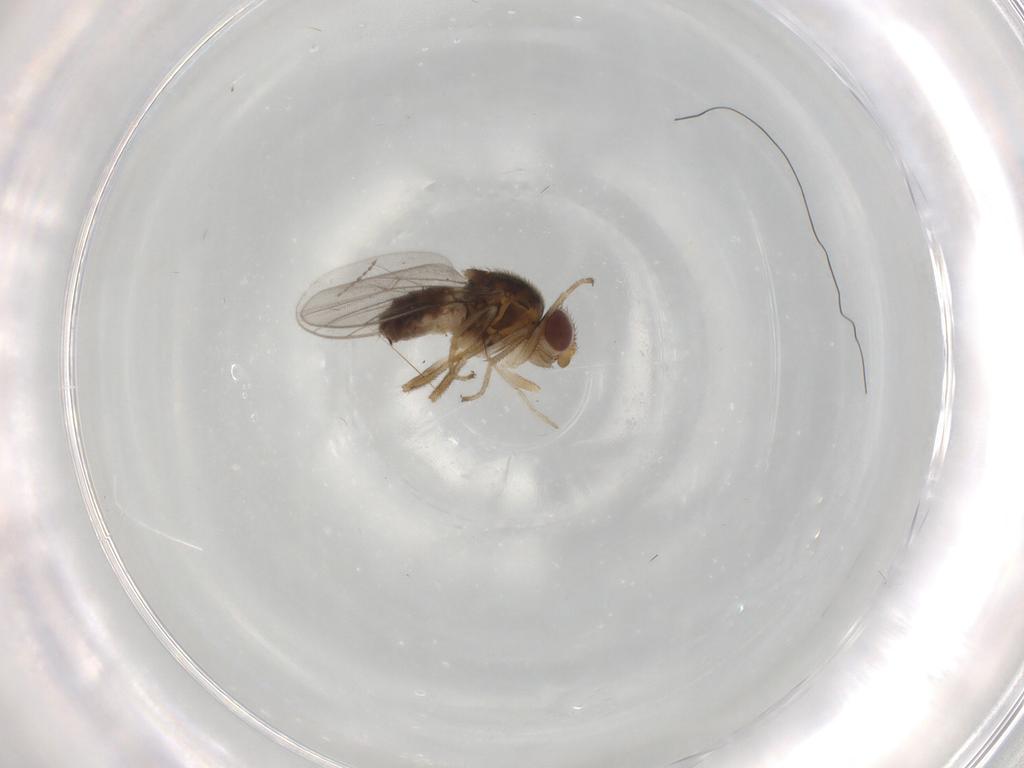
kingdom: Animalia
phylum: Arthropoda
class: Insecta
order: Diptera
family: Chloropidae
